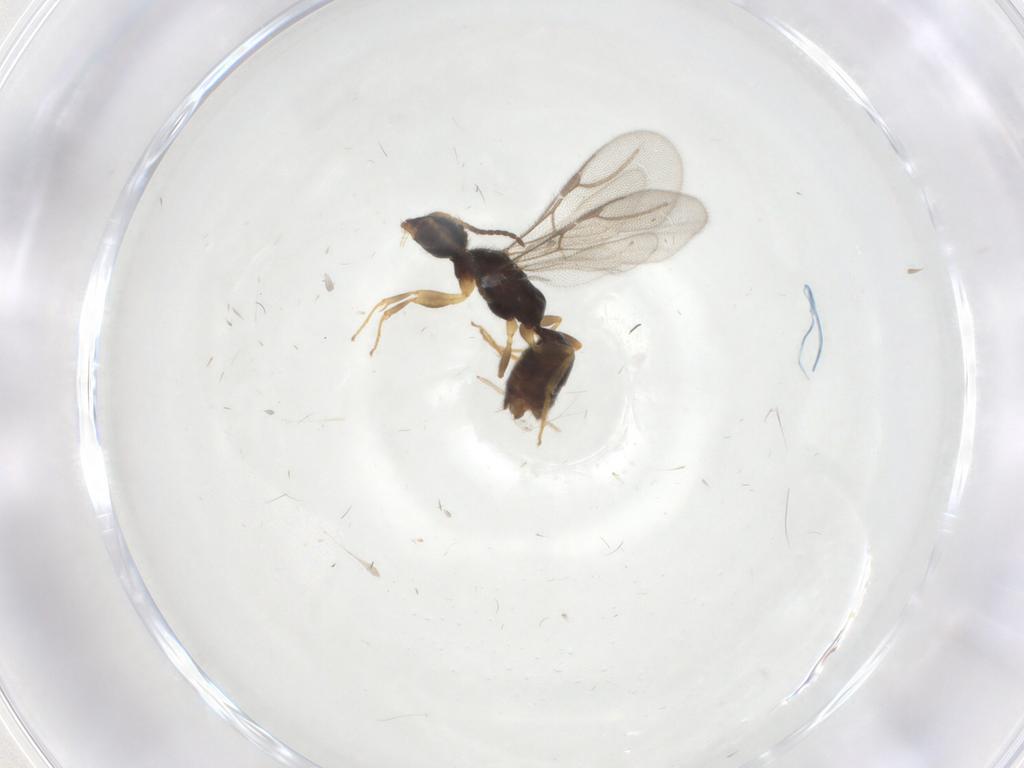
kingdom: Animalia
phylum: Arthropoda
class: Insecta
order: Hymenoptera
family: Bethylidae
